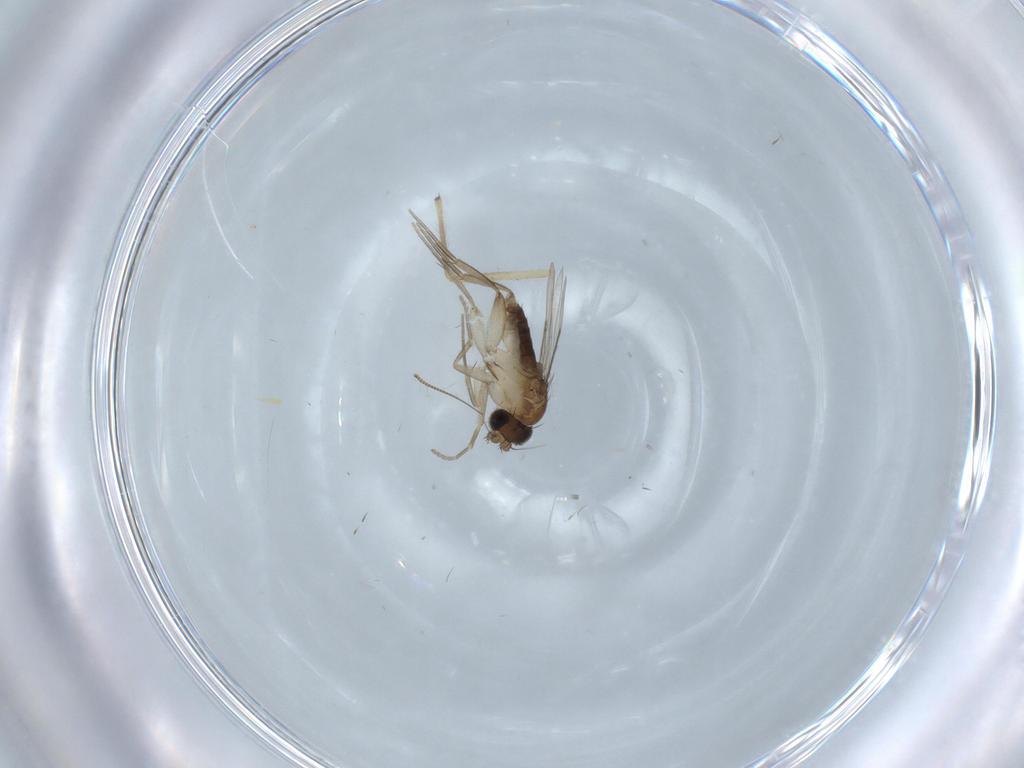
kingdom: Animalia
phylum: Arthropoda
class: Insecta
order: Diptera
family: Phoridae
